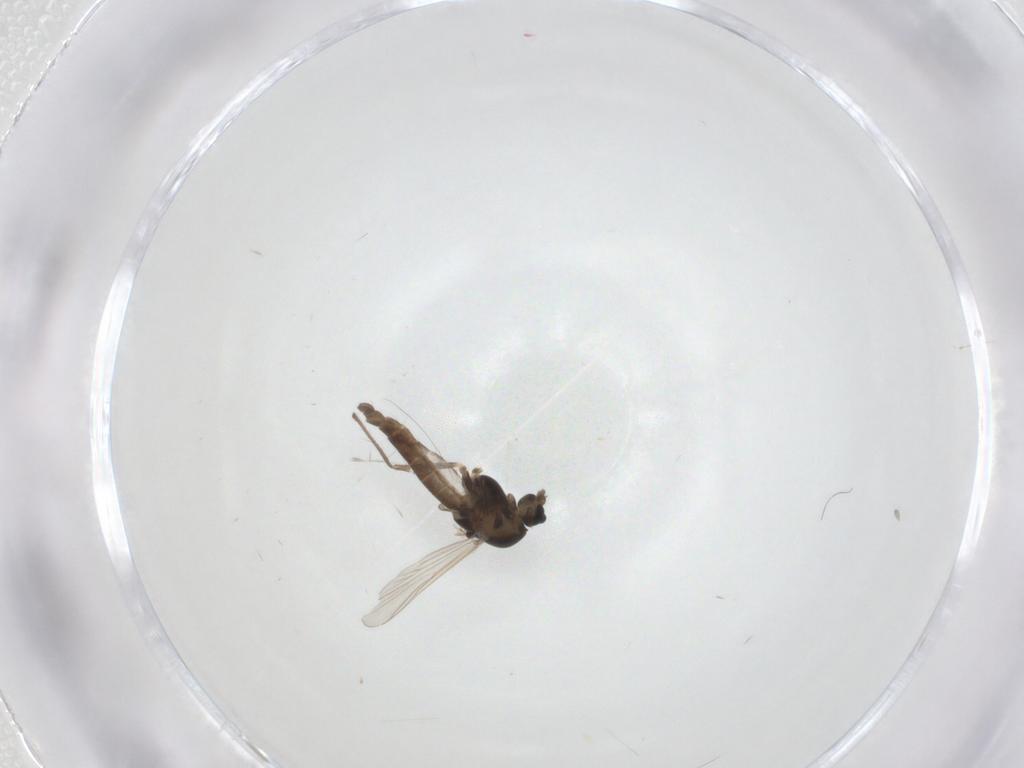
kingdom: Animalia
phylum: Arthropoda
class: Insecta
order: Diptera
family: Chironomidae
